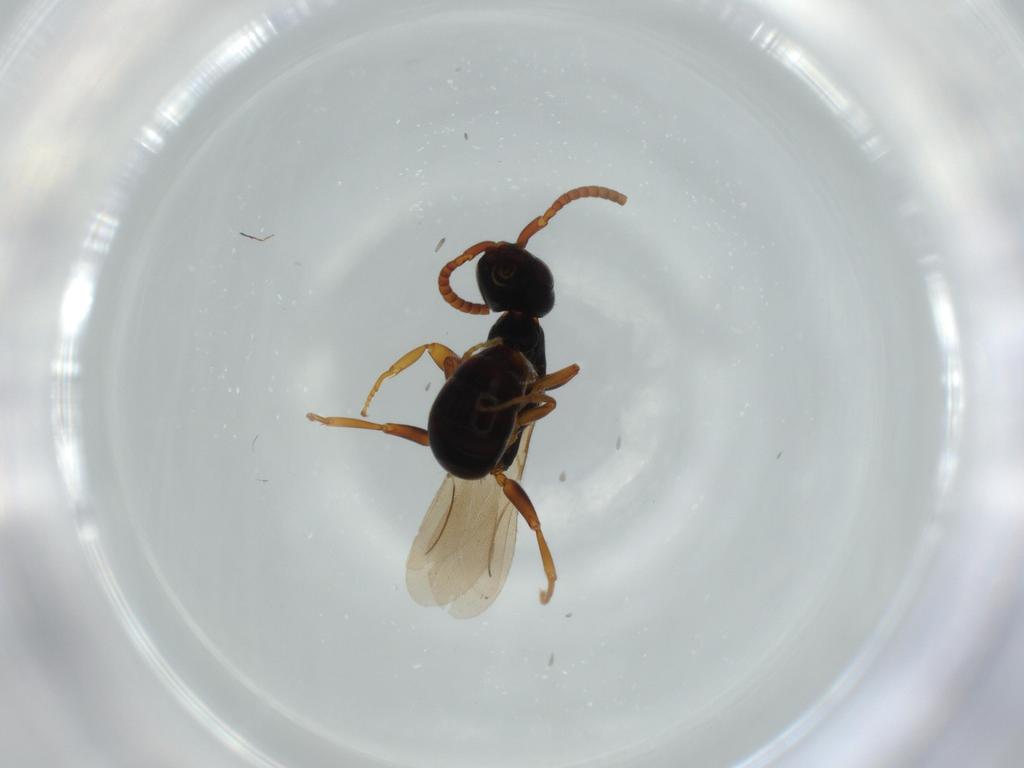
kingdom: Animalia
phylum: Arthropoda
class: Insecta
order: Hymenoptera
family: Bethylidae
